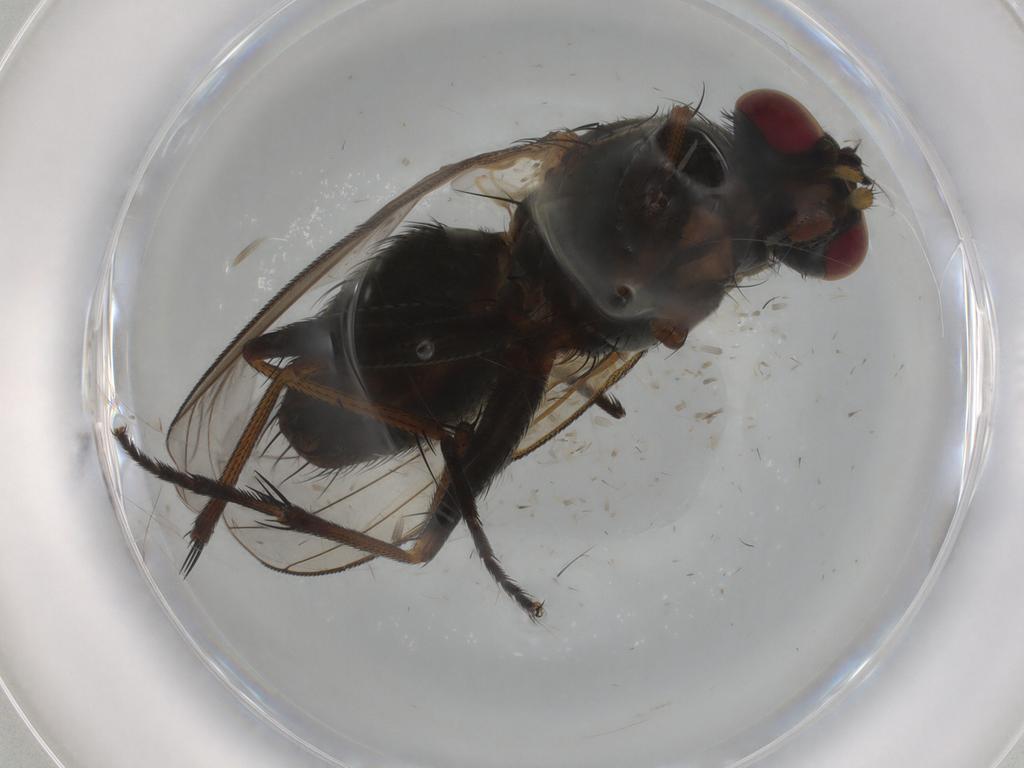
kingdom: Animalia
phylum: Arthropoda
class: Insecta
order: Diptera
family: Muscidae
